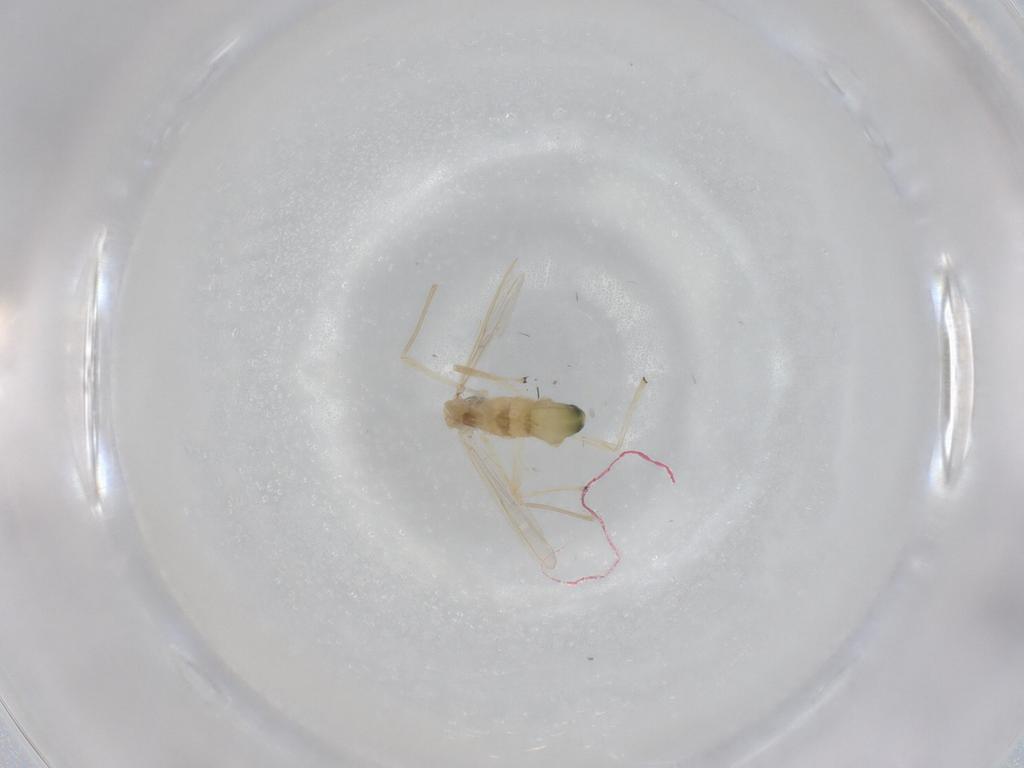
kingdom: Animalia
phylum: Arthropoda
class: Insecta
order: Diptera
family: Chironomidae
